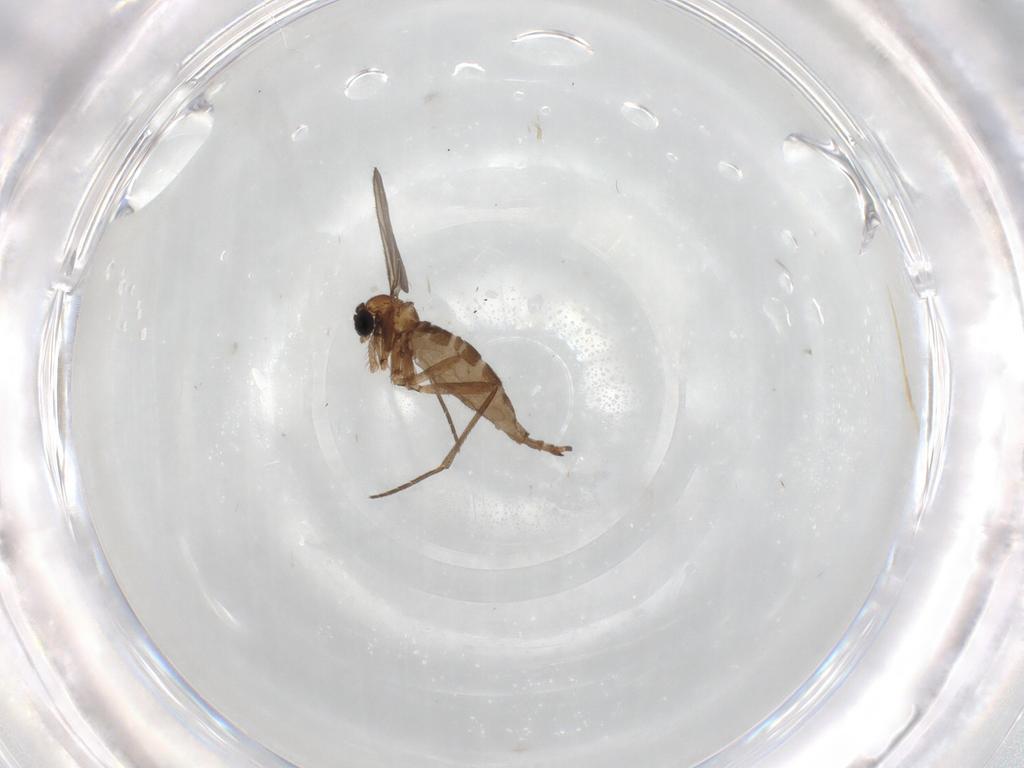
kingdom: Animalia
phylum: Arthropoda
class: Insecta
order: Diptera
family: Sciaridae
